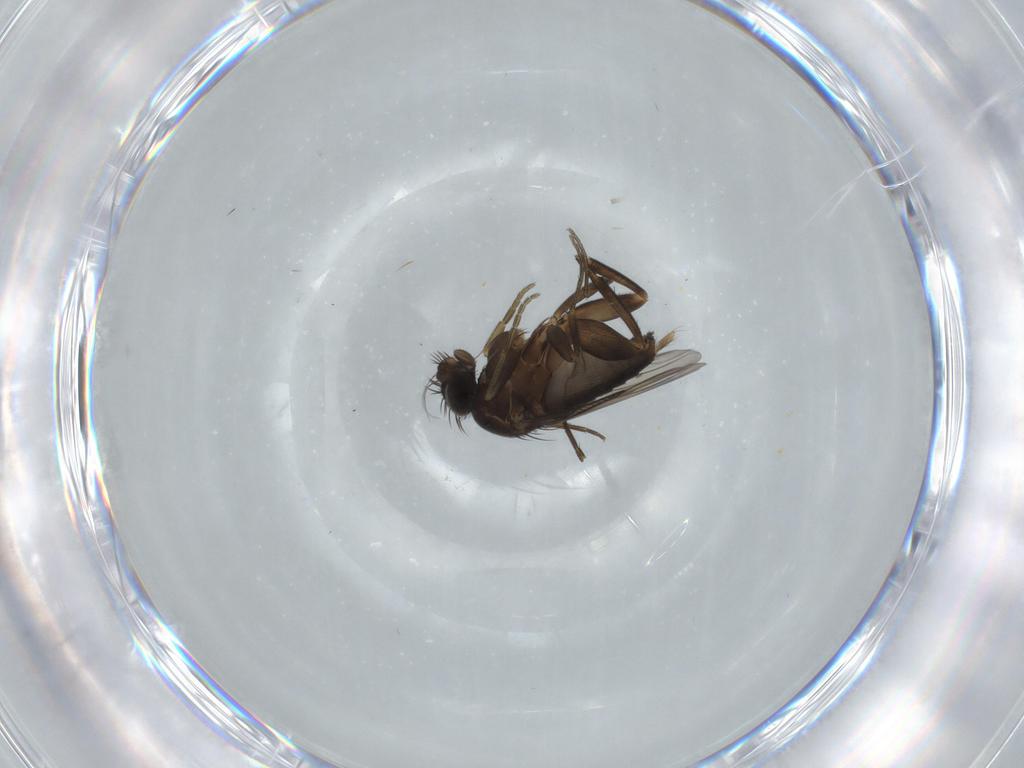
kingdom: Animalia
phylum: Arthropoda
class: Insecta
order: Diptera
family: Phoridae
